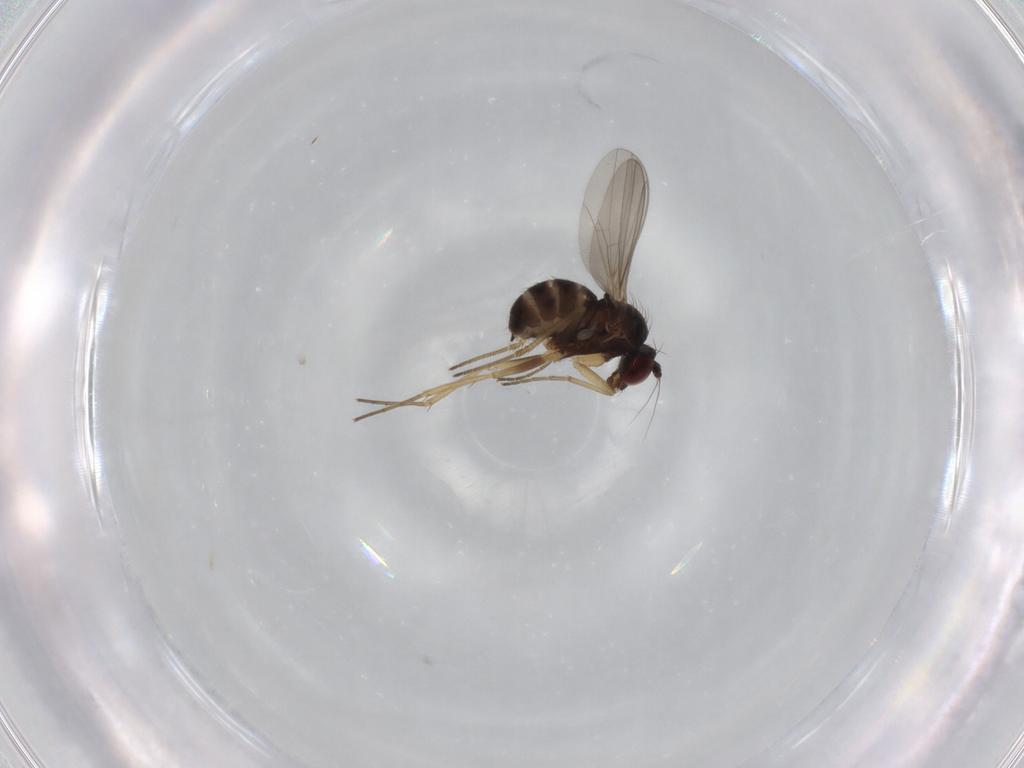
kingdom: Animalia
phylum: Arthropoda
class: Insecta
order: Diptera
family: Dolichopodidae
